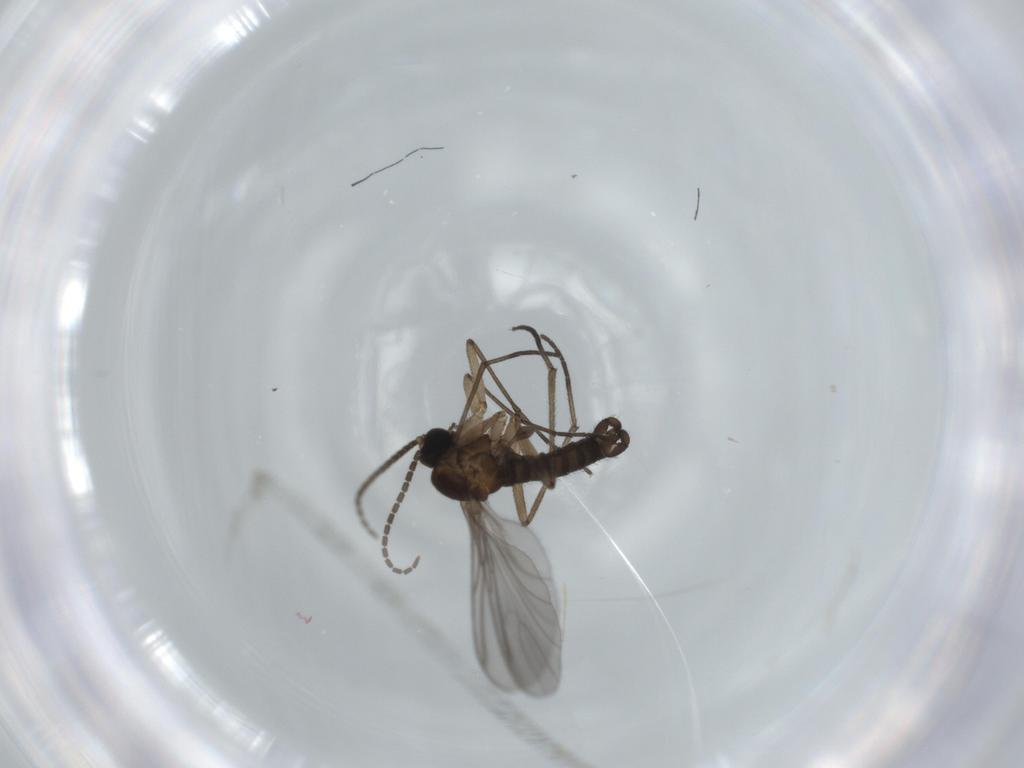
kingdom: Animalia
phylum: Arthropoda
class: Insecta
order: Diptera
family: Sciaridae
